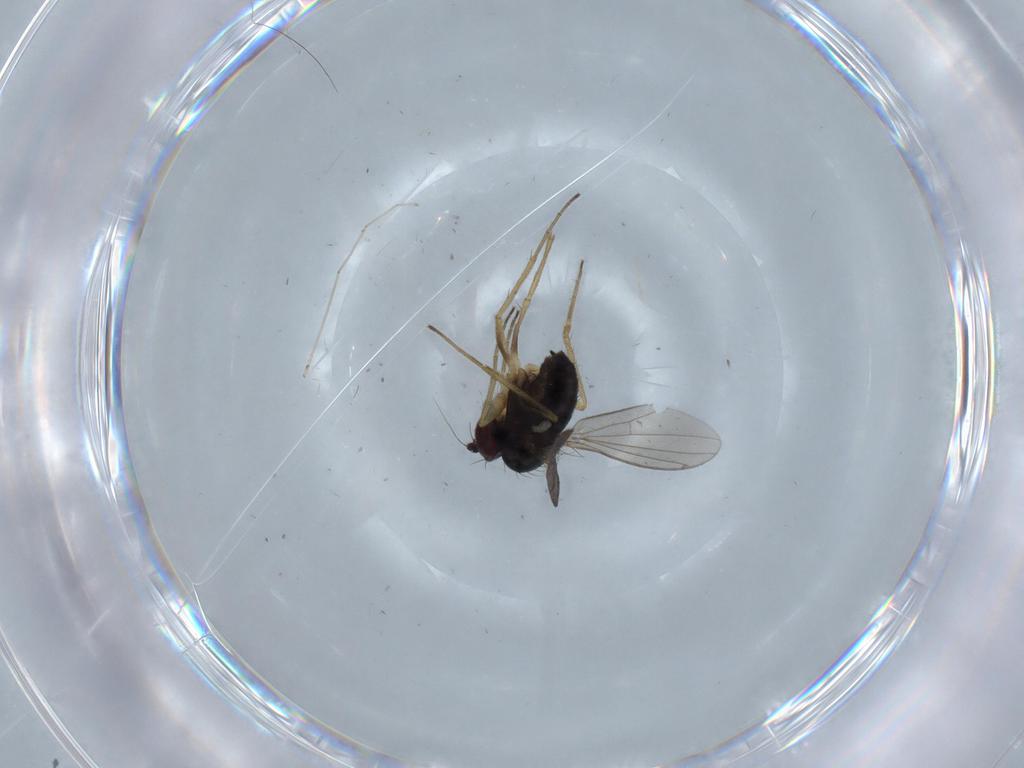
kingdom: Animalia
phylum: Arthropoda
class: Insecta
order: Diptera
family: Dolichopodidae
